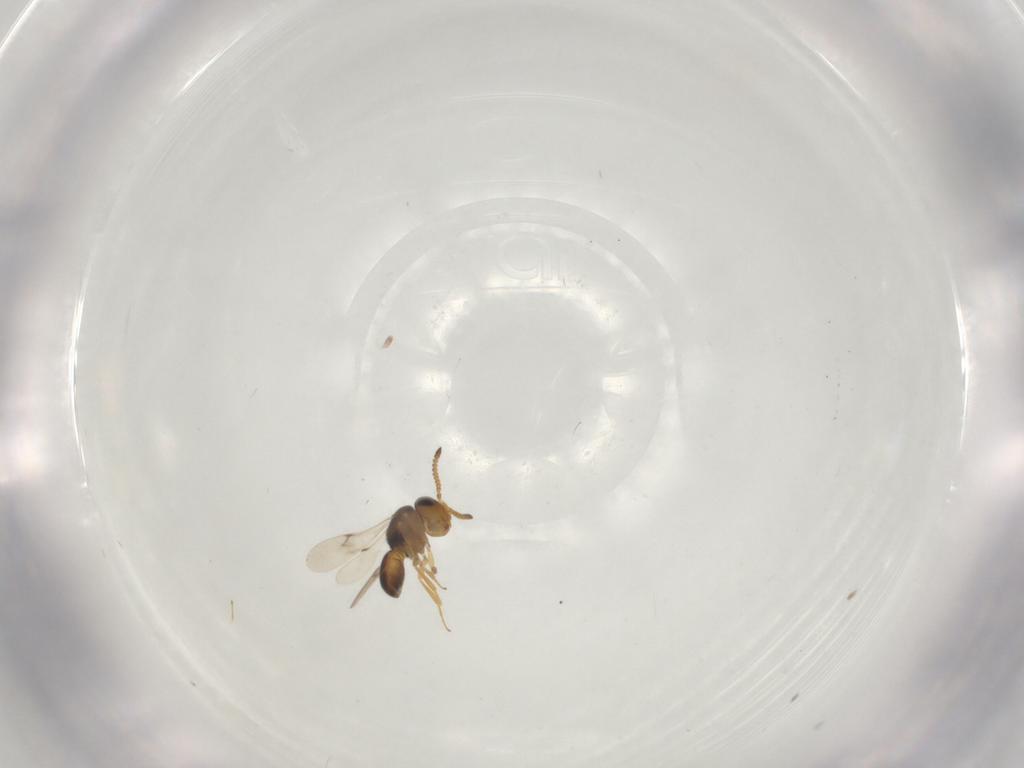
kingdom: Animalia
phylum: Arthropoda
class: Insecta
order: Hymenoptera
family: Scelionidae
